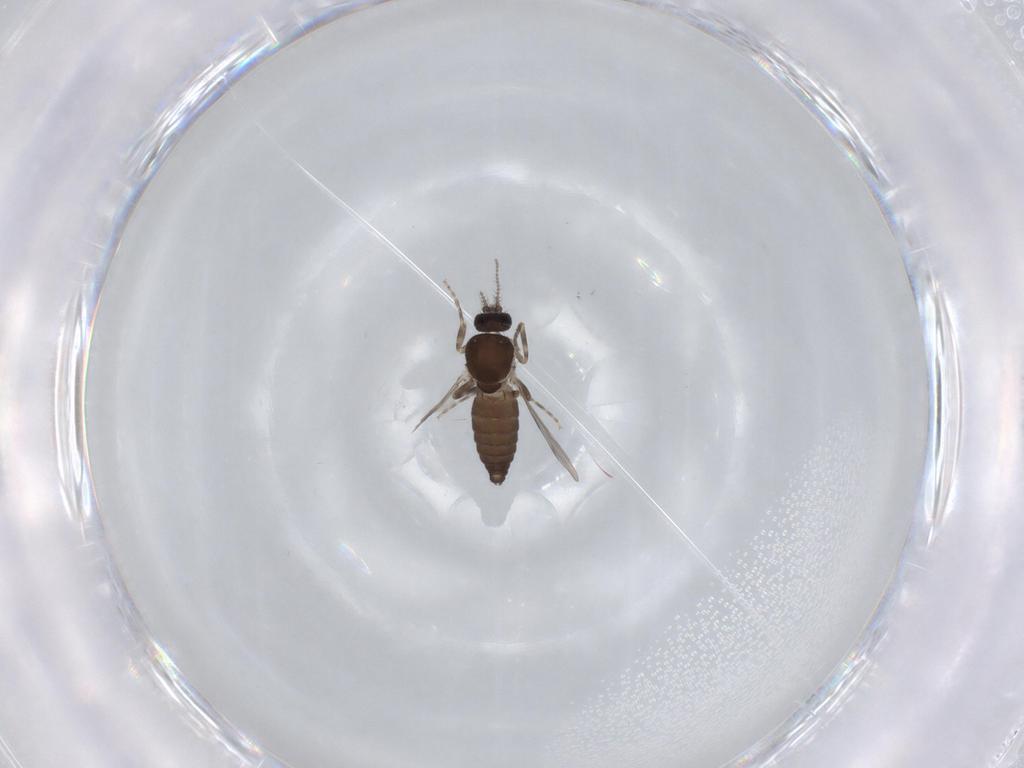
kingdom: Animalia
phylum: Arthropoda
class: Insecta
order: Diptera
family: Ceratopogonidae
